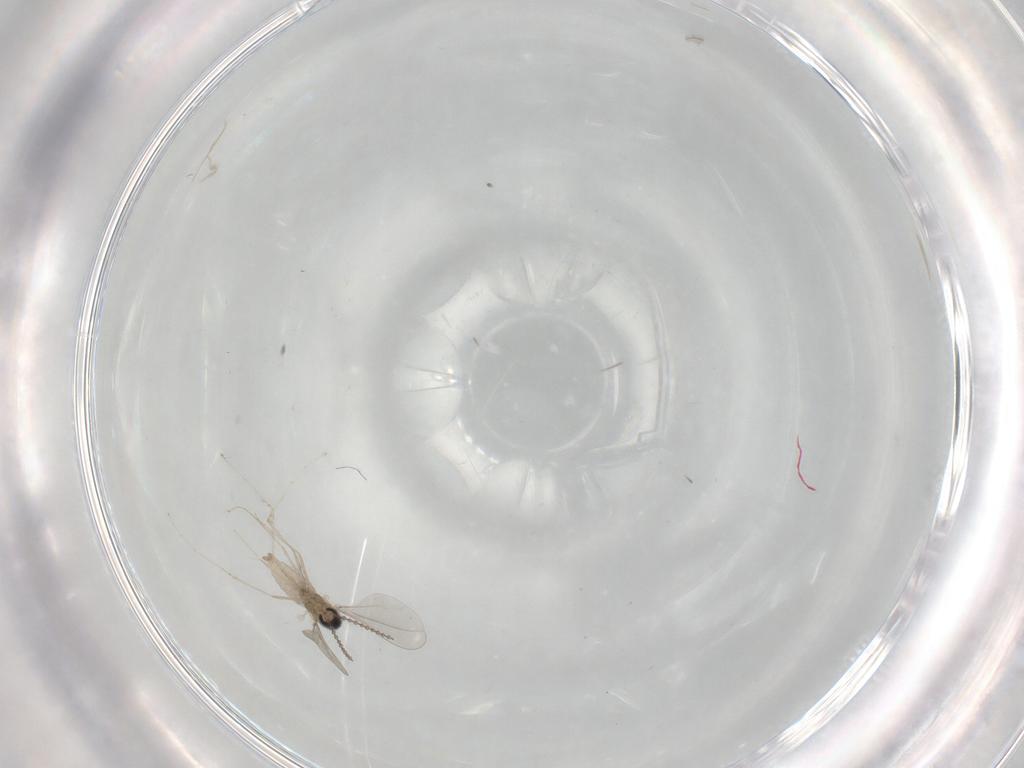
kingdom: Animalia
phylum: Arthropoda
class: Insecta
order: Diptera
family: Cecidomyiidae
